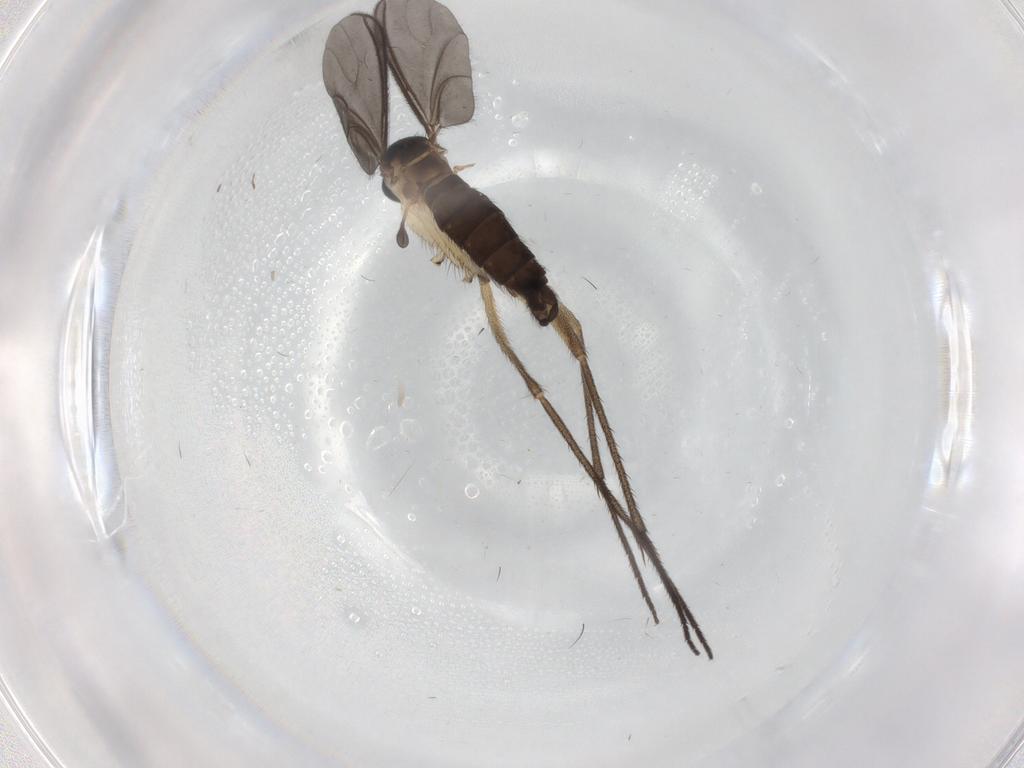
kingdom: Animalia
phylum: Arthropoda
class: Insecta
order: Diptera
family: Sciaridae
